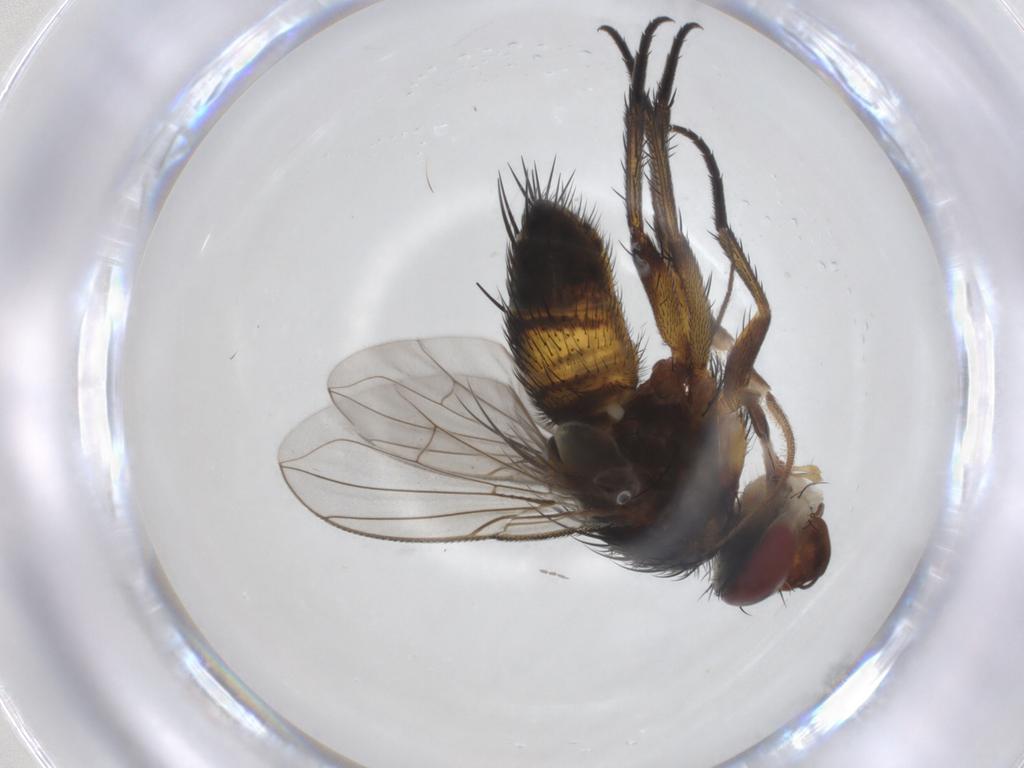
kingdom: Animalia
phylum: Arthropoda
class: Insecta
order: Diptera
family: Tachinidae
